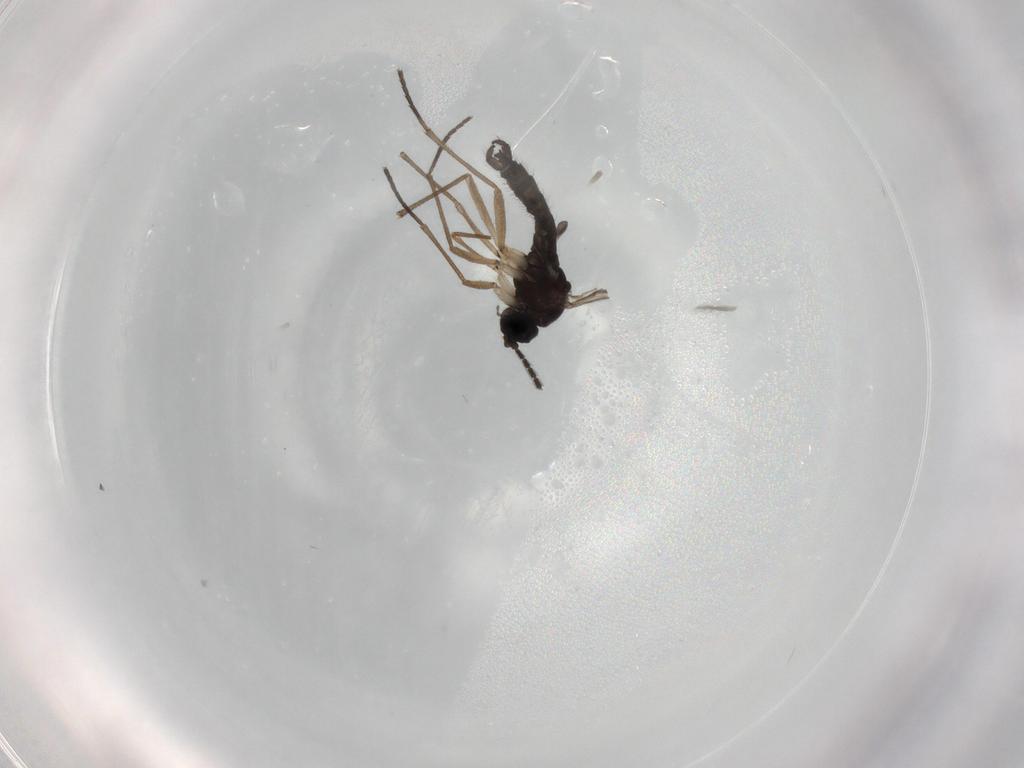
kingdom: Animalia
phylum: Arthropoda
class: Insecta
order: Diptera
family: Sciaridae
